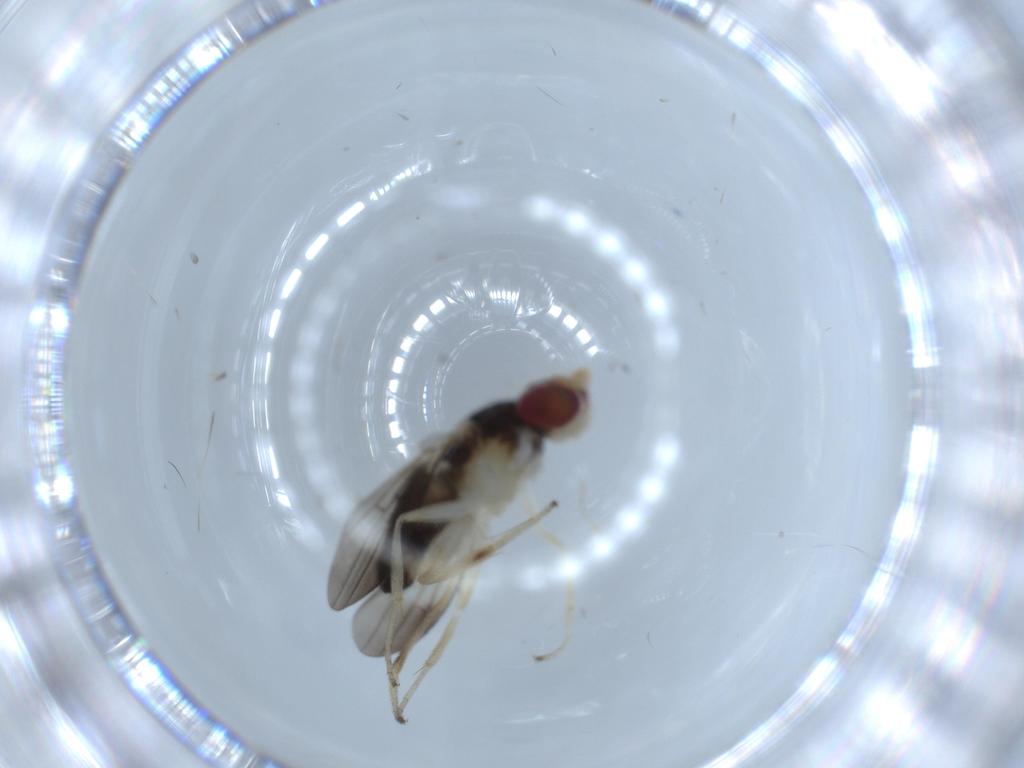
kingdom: Animalia
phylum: Arthropoda
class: Insecta
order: Diptera
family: Clusiidae
